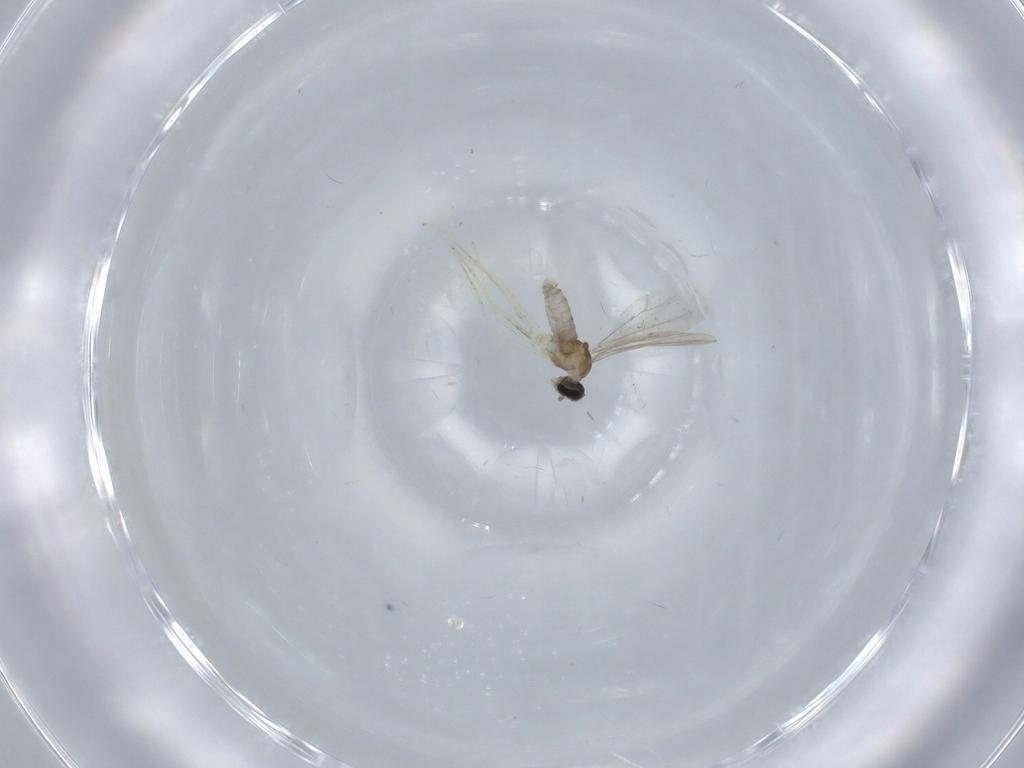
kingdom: Animalia
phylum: Arthropoda
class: Insecta
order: Diptera
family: Cecidomyiidae
